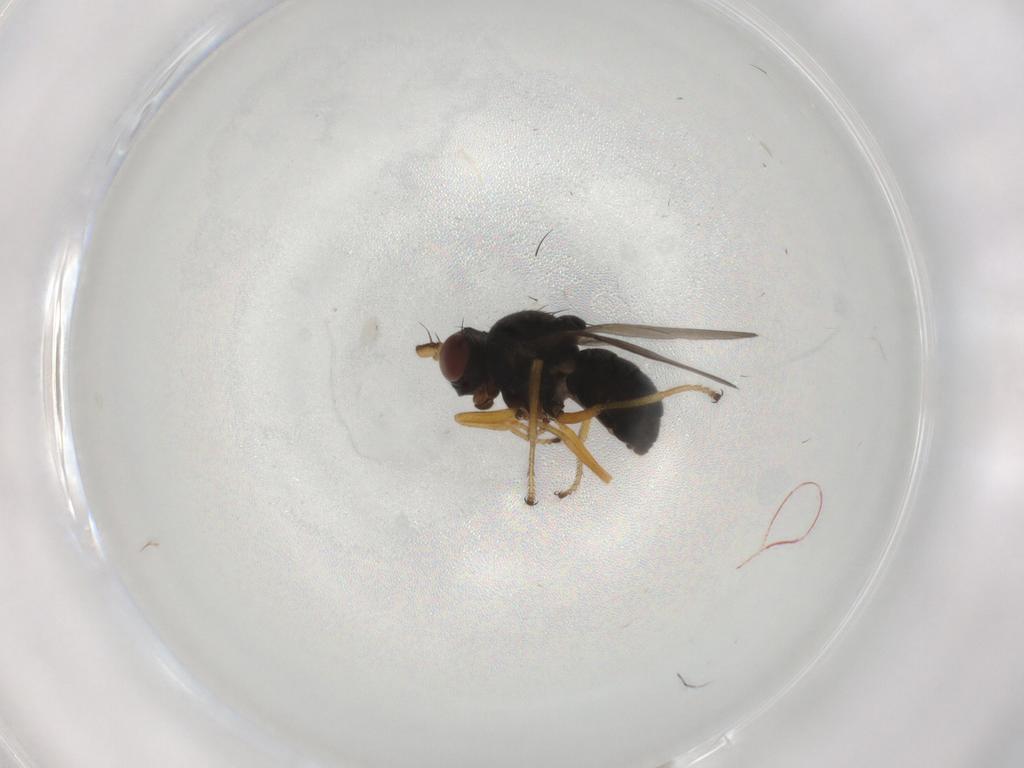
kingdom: Animalia
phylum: Arthropoda
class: Insecta
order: Diptera
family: Ephydridae
